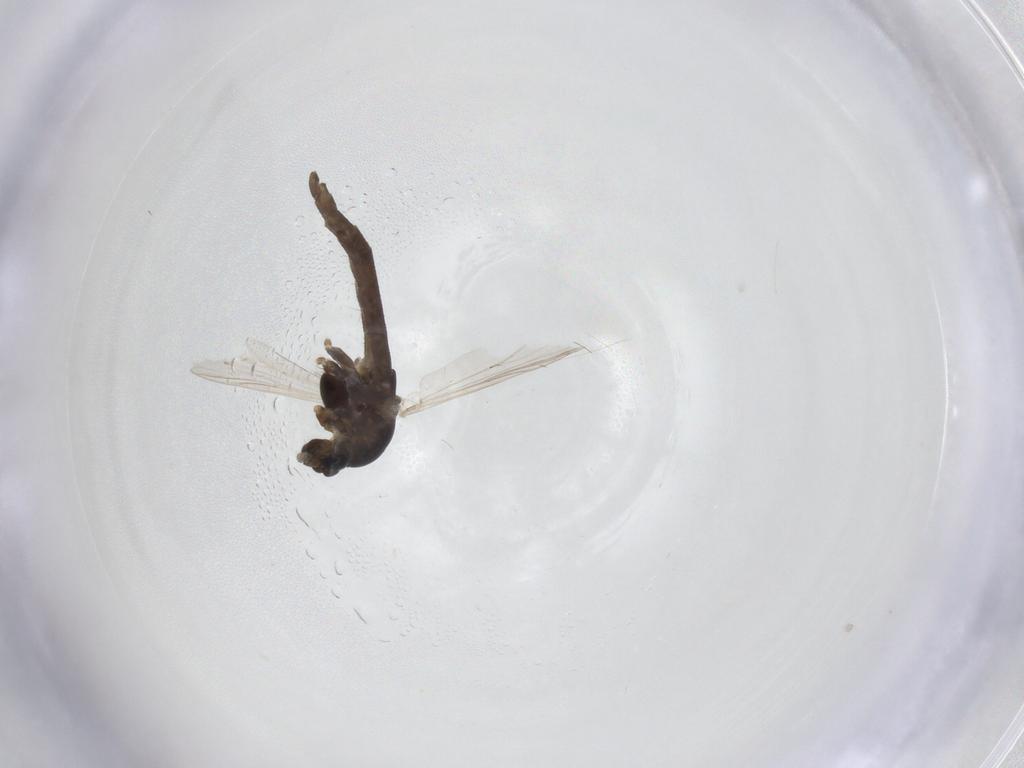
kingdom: Animalia
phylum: Arthropoda
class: Insecta
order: Diptera
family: Chironomidae
